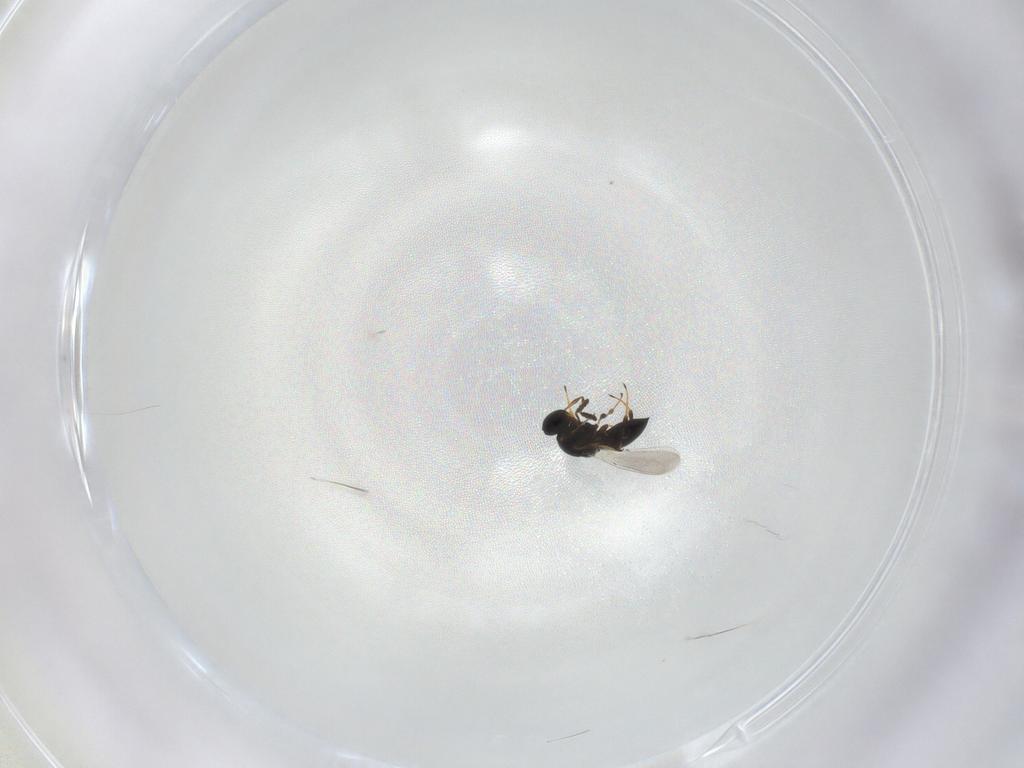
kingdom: Animalia
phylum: Arthropoda
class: Insecta
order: Hymenoptera
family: Platygastridae
